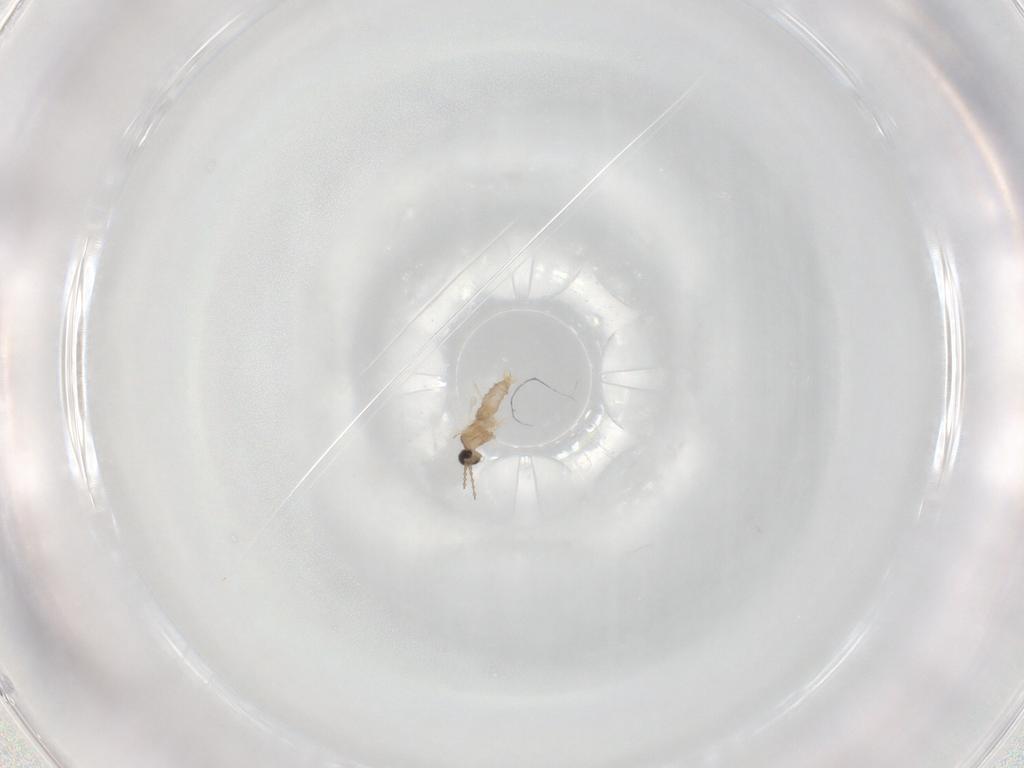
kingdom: Animalia
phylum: Arthropoda
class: Insecta
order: Diptera
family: Cecidomyiidae
